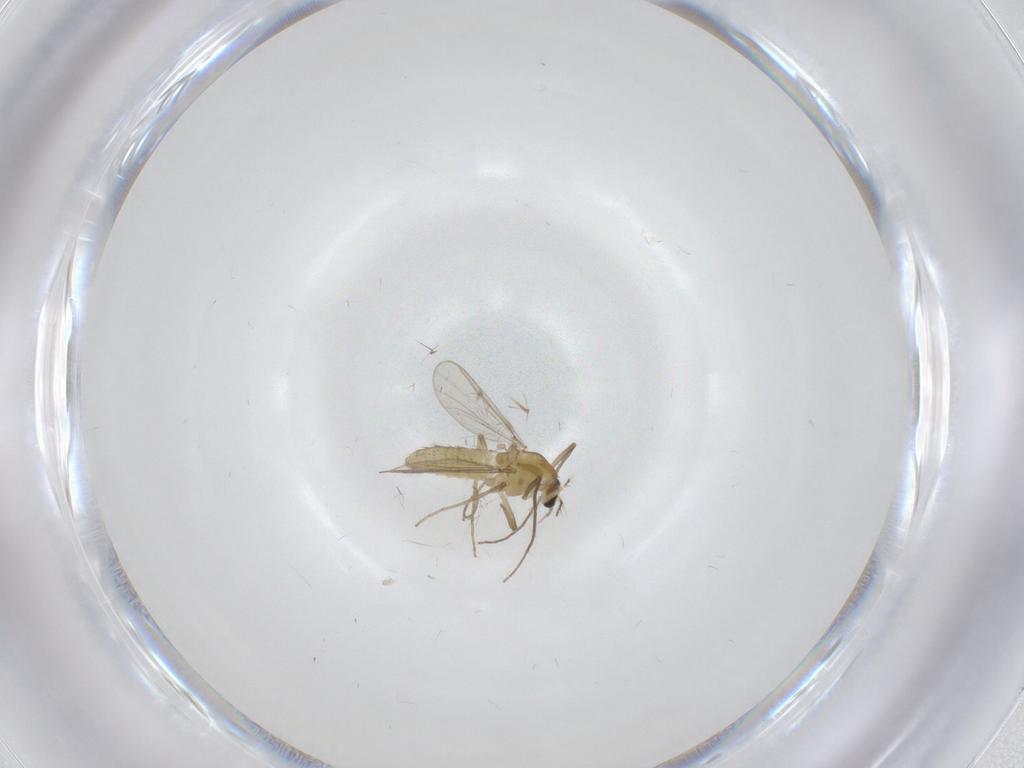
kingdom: Animalia
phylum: Arthropoda
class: Insecta
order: Diptera
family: Chironomidae
